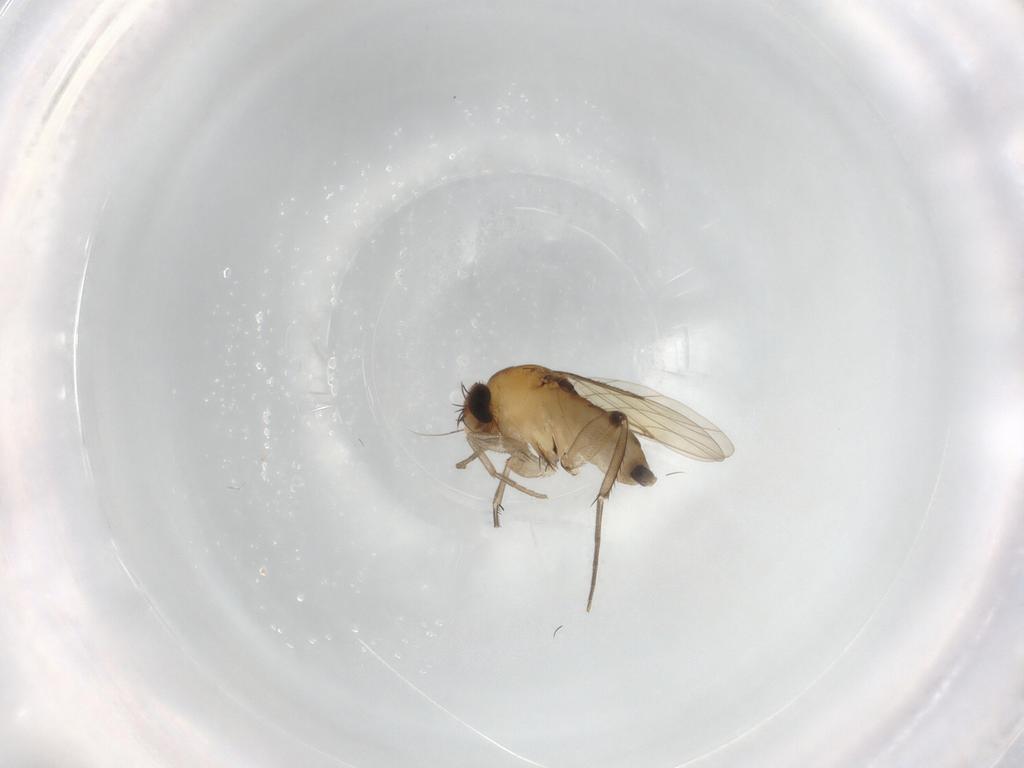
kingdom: Animalia
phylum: Arthropoda
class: Insecta
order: Diptera
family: Phoridae
